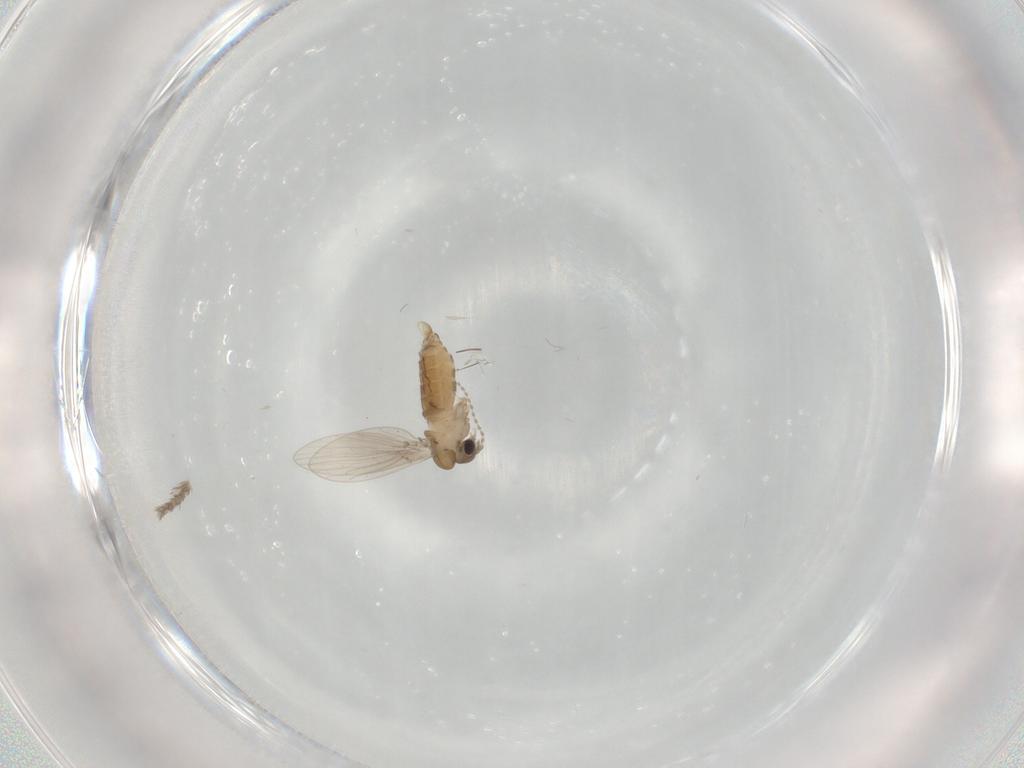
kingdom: Animalia
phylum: Arthropoda
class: Insecta
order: Diptera
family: Psychodidae
